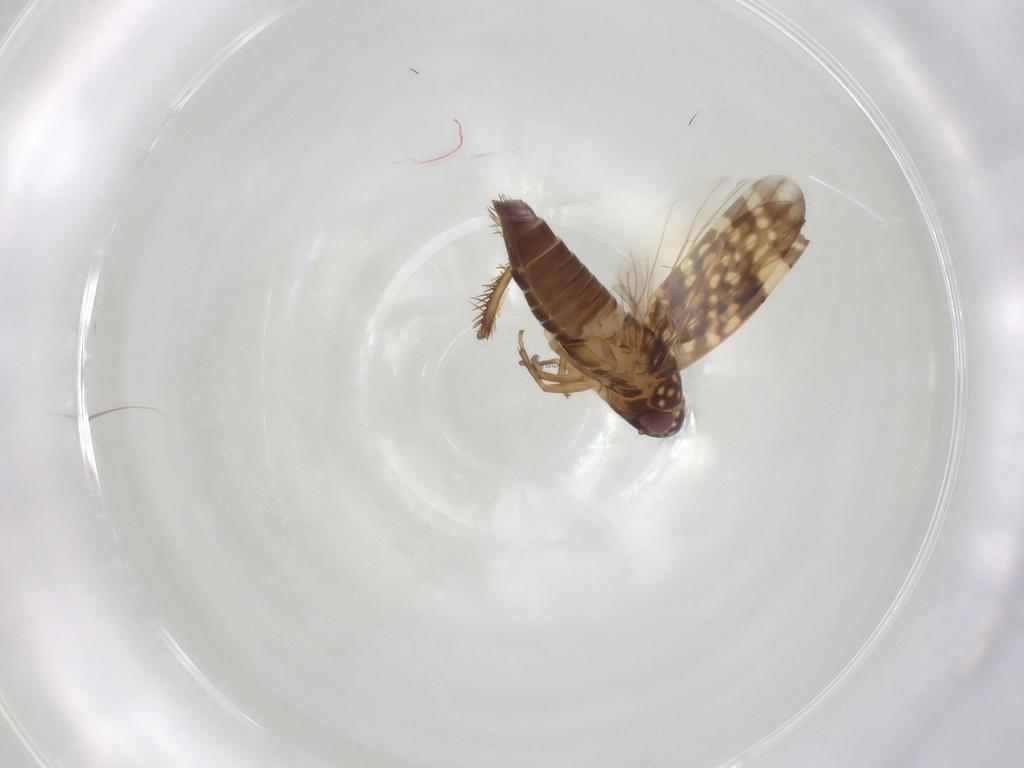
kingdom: Animalia
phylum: Arthropoda
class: Insecta
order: Hemiptera
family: Cicadellidae
